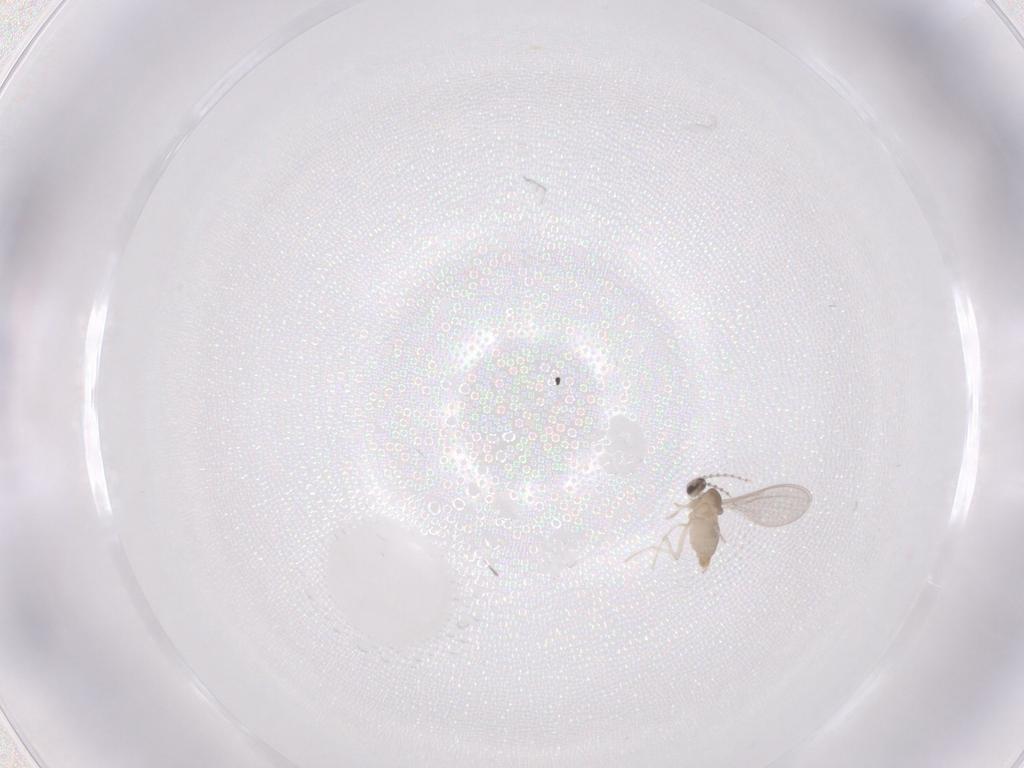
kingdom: Animalia
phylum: Arthropoda
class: Insecta
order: Diptera
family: Cecidomyiidae
